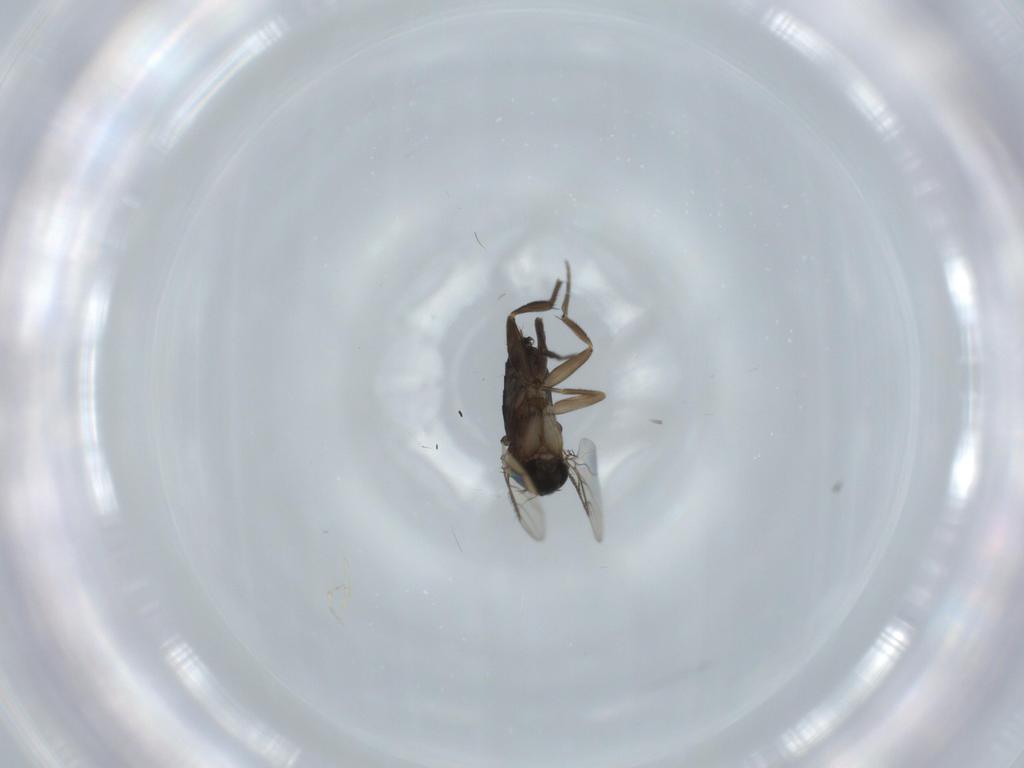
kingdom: Animalia
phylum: Arthropoda
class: Insecta
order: Diptera
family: Phoridae
